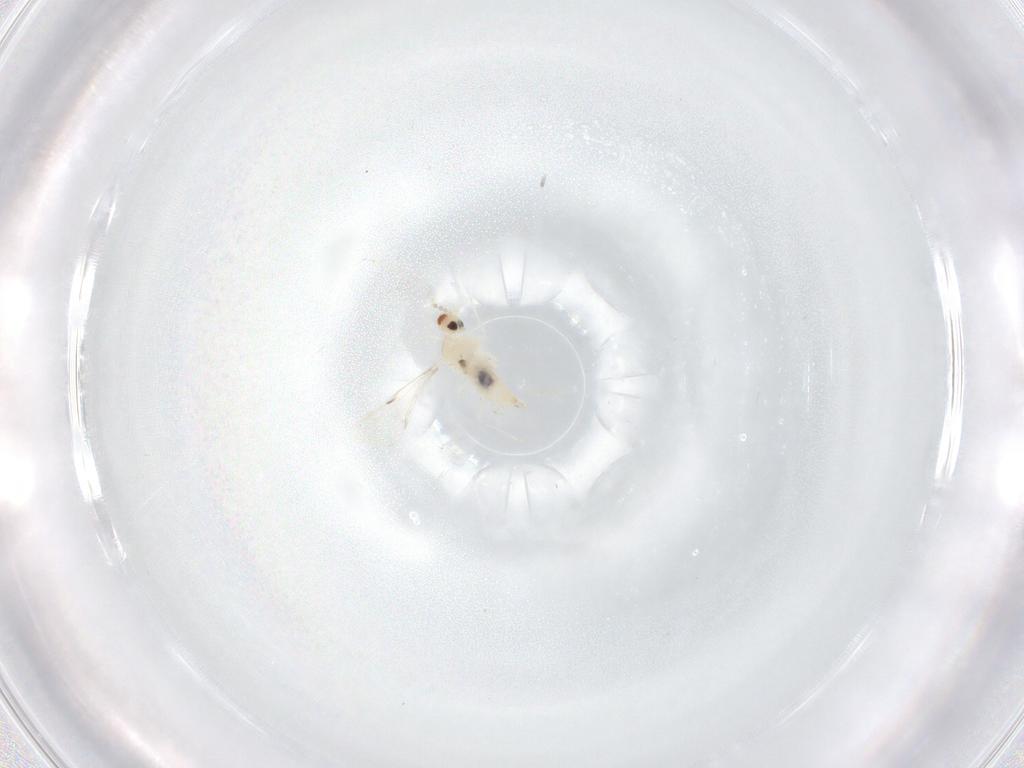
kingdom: Animalia
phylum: Arthropoda
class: Insecta
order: Diptera
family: Cecidomyiidae
